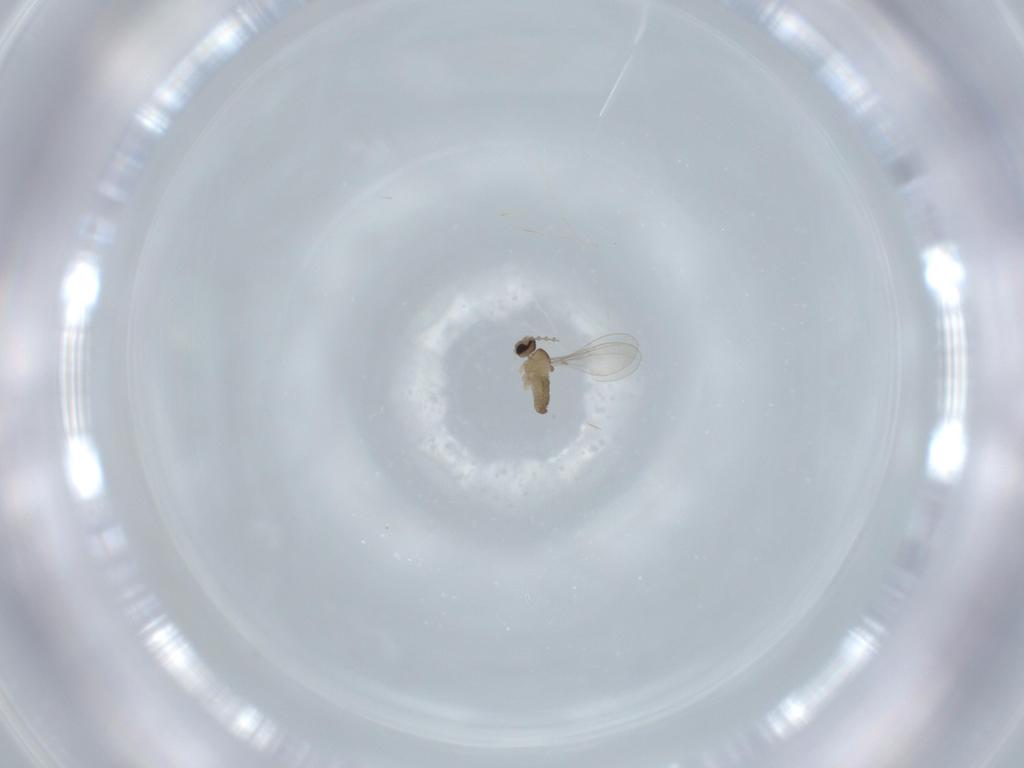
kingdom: Animalia
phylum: Arthropoda
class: Insecta
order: Diptera
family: Cecidomyiidae
